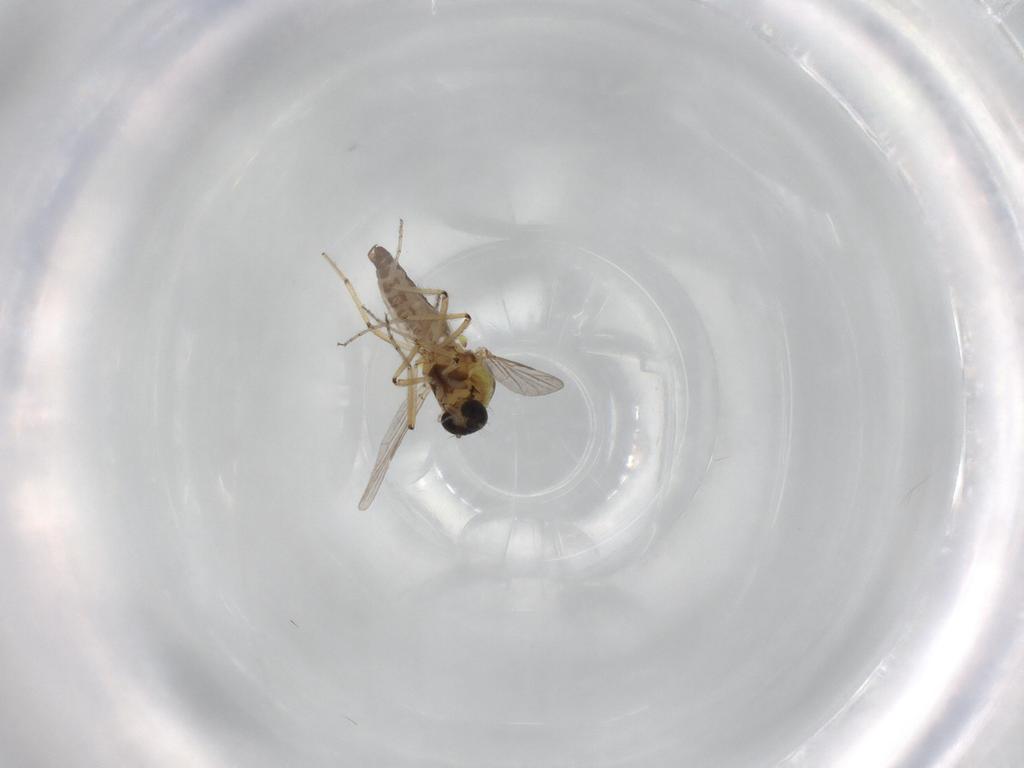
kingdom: Animalia
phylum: Arthropoda
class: Insecta
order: Diptera
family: Ceratopogonidae
